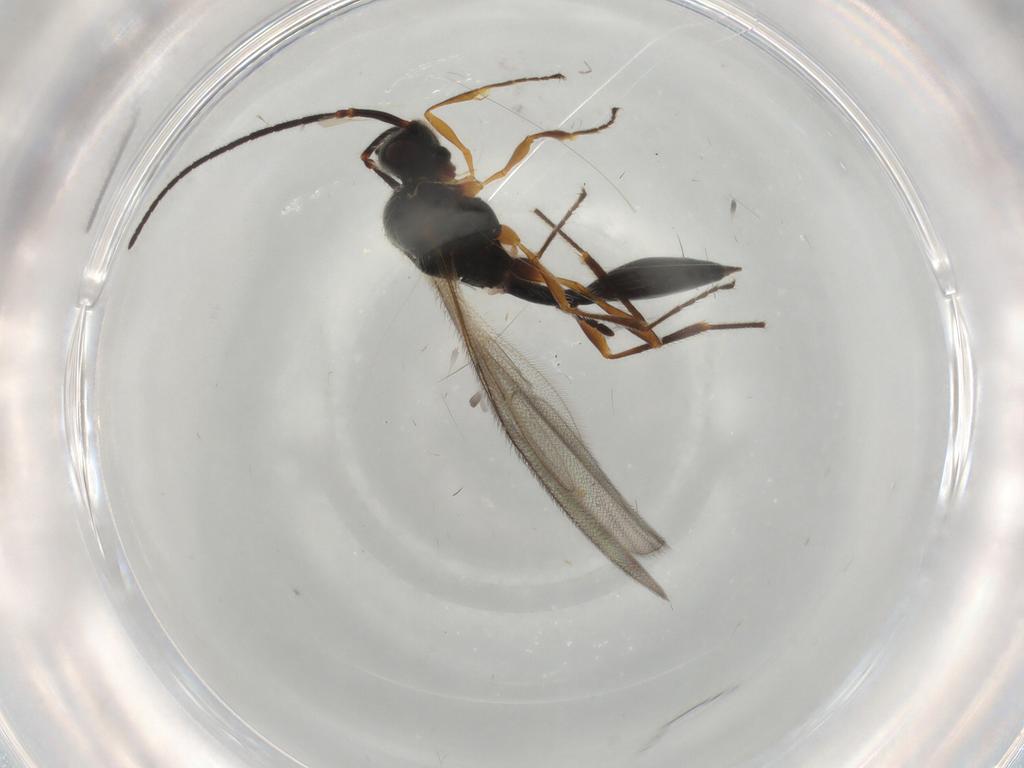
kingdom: Animalia
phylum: Arthropoda
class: Insecta
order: Hymenoptera
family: Diapriidae
